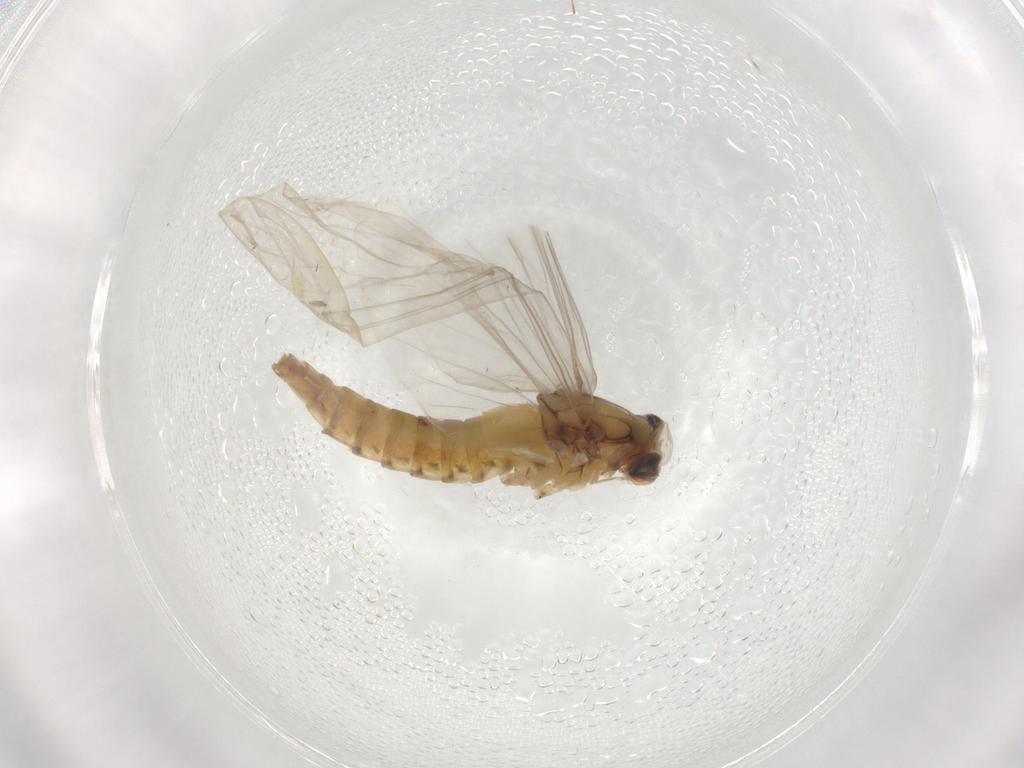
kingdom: Animalia
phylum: Arthropoda
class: Insecta
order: Ephemeroptera
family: Baetidae
